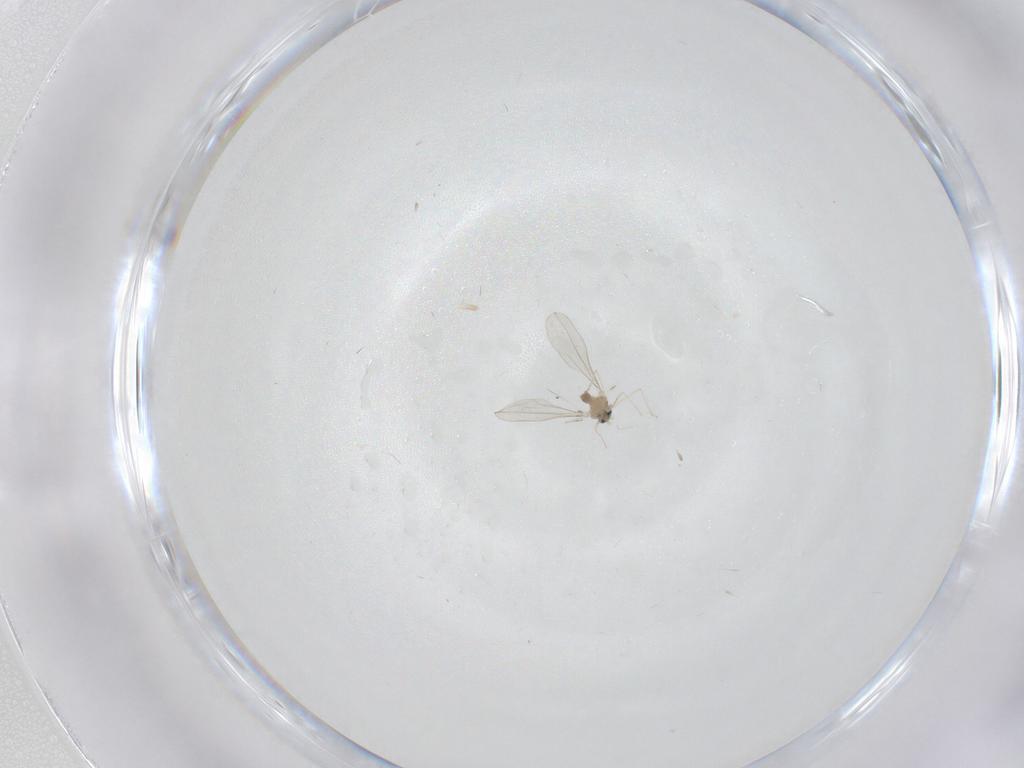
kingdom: Animalia
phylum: Arthropoda
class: Insecta
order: Diptera
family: Cecidomyiidae
